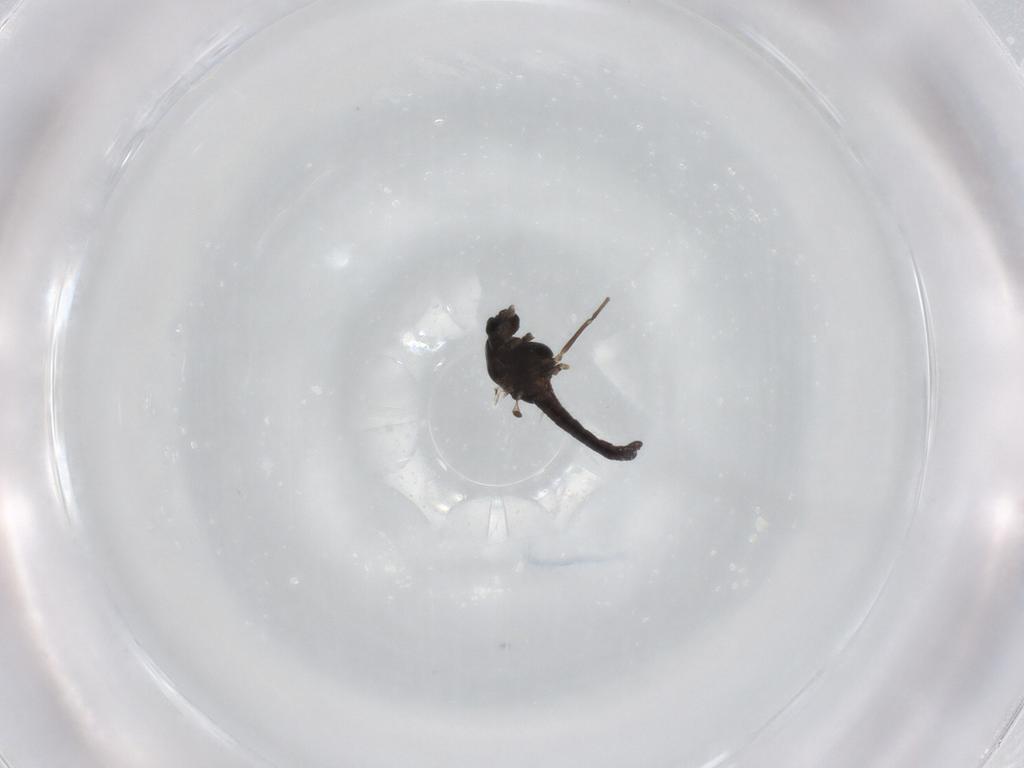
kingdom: Animalia
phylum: Arthropoda
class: Insecta
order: Diptera
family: Chironomidae
